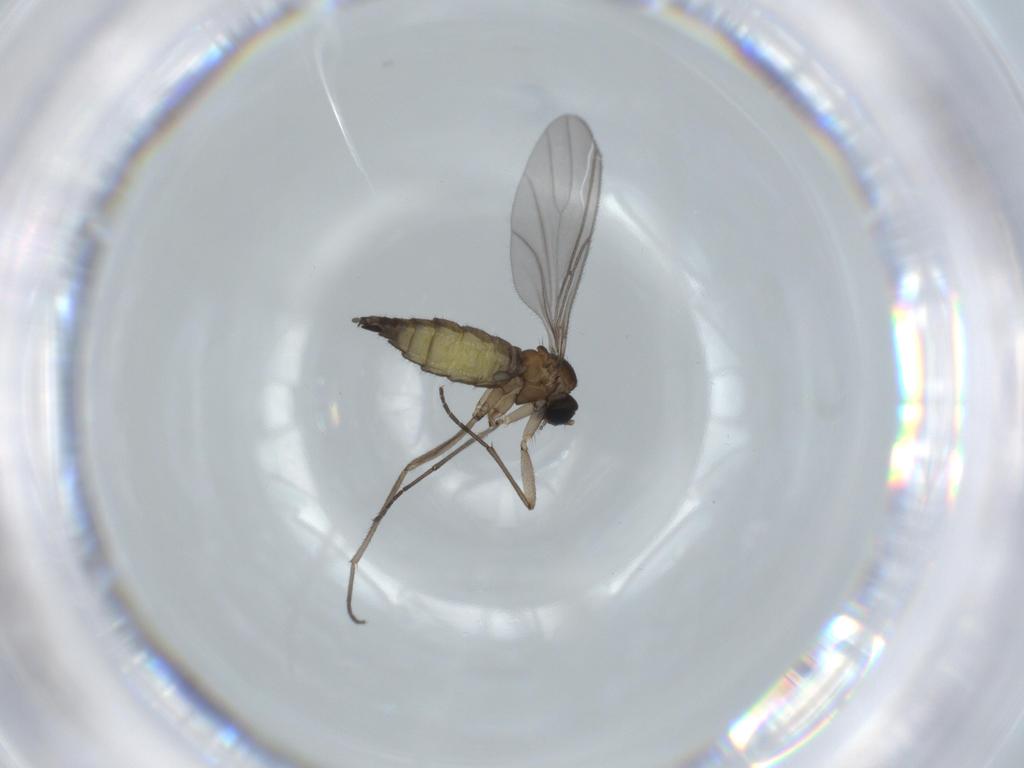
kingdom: Animalia
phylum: Arthropoda
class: Insecta
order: Diptera
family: Sciaridae
